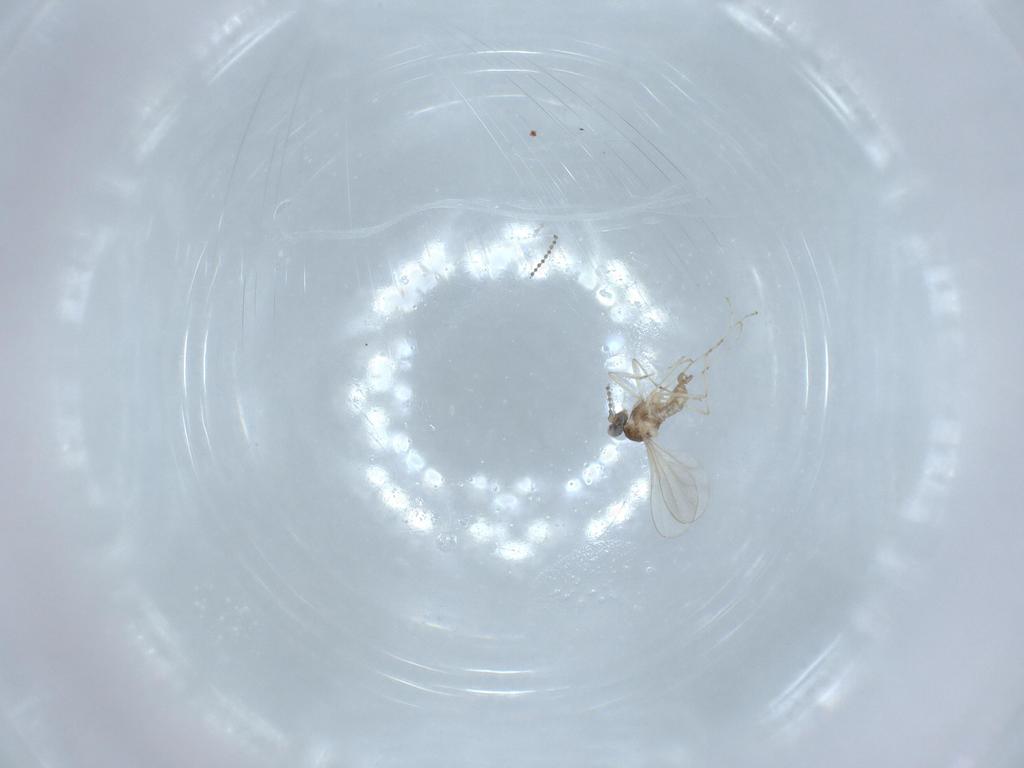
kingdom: Animalia
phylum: Arthropoda
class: Insecta
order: Diptera
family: Cecidomyiidae
